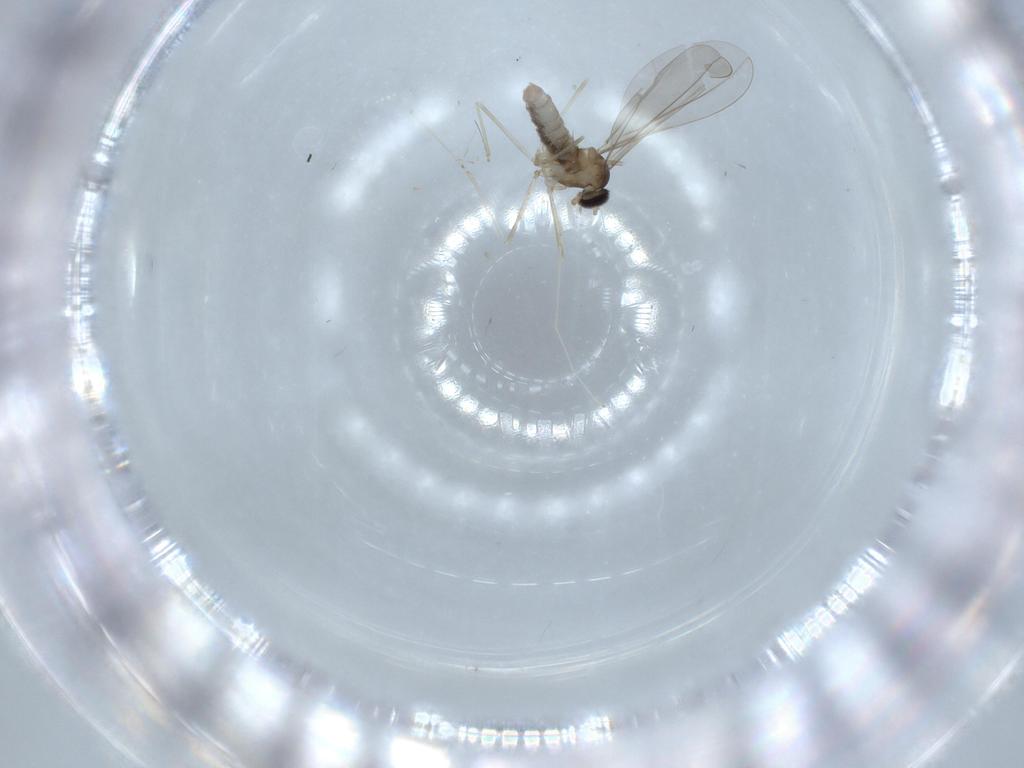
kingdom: Animalia
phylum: Arthropoda
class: Insecta
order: Diptera
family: Cecidomyiidae
